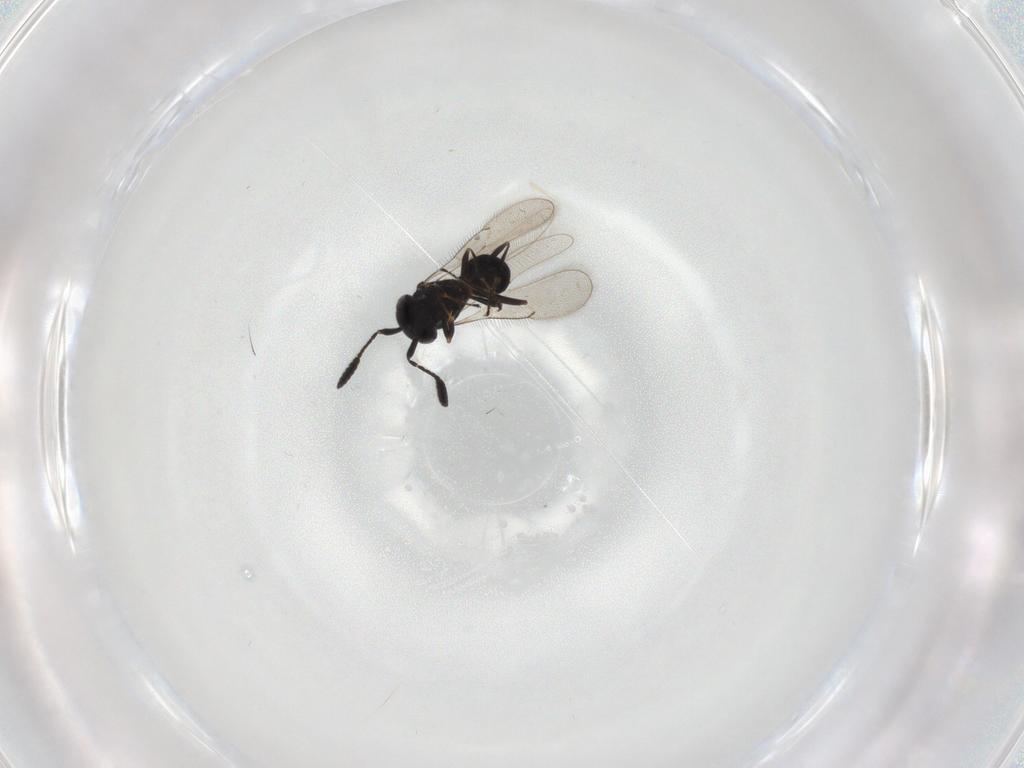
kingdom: Animalia
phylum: Arthropoda
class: Insecta
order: Hymenoptera
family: Scelionidae
